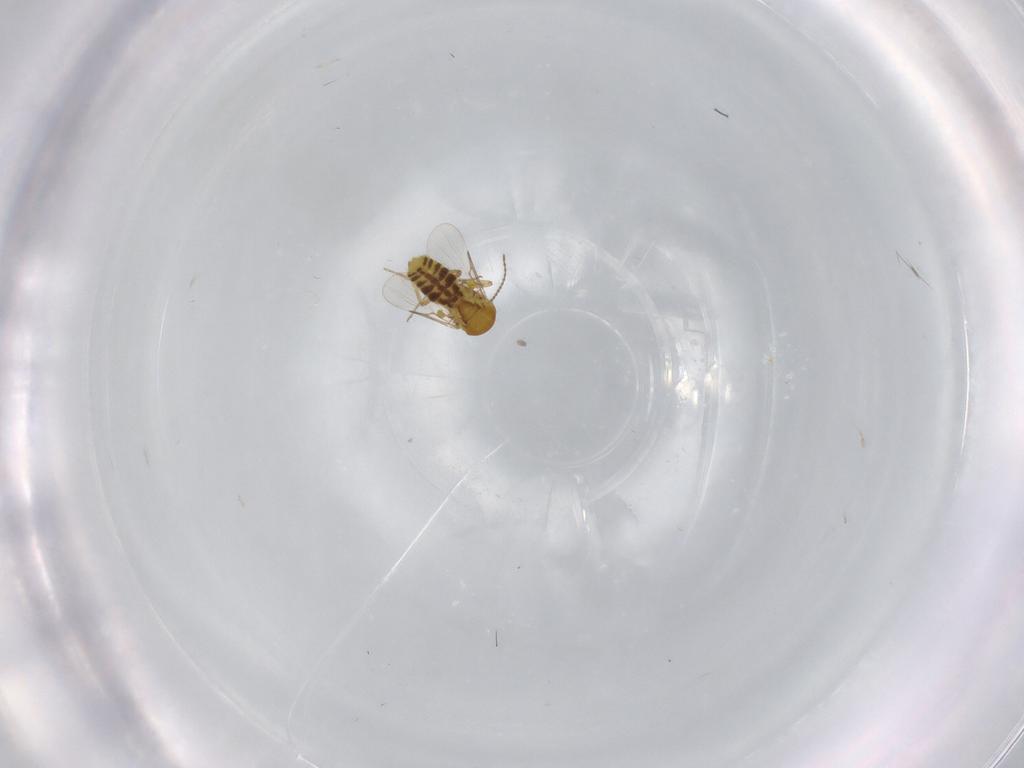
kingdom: Animalia
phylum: Arthropoda
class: Insecta
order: Diptera
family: Cecidomyiidae
